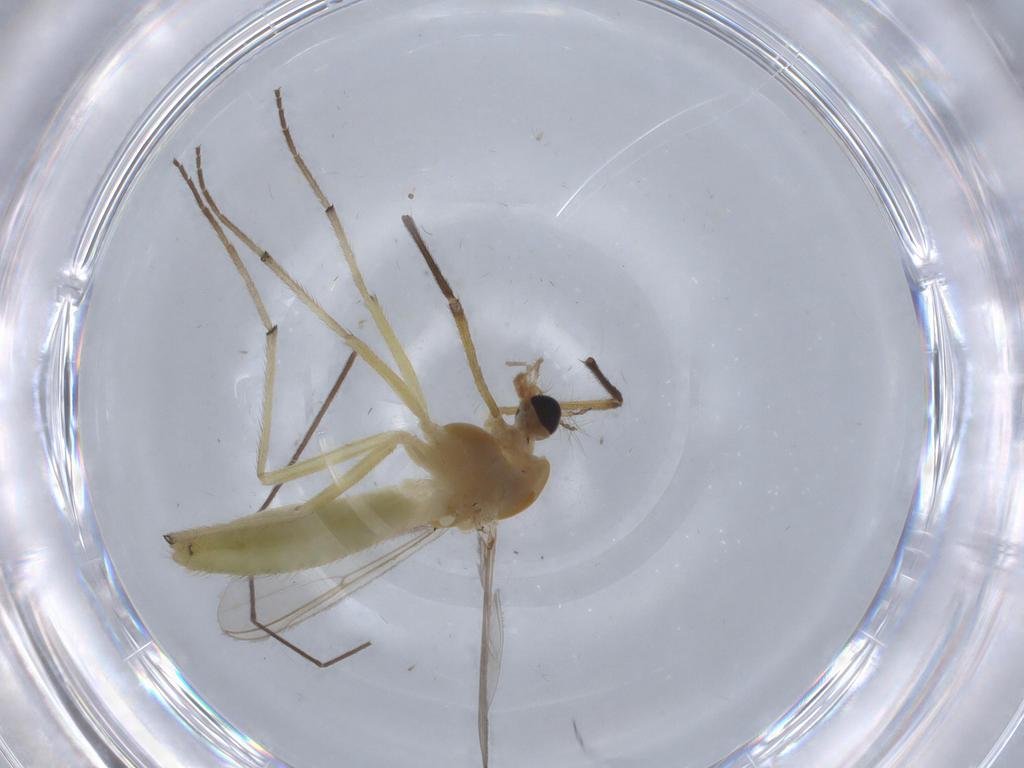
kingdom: Animalia
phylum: Arthropoda
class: Insecta
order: Diptera
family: Chironomidae
